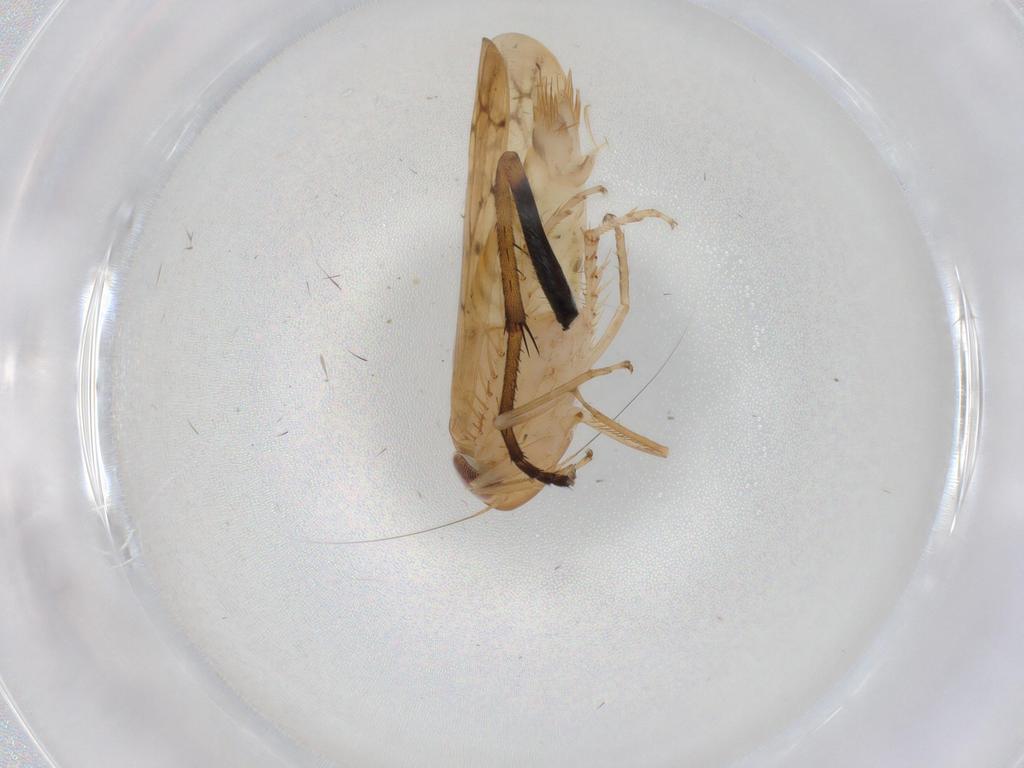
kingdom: Animalia
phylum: Arthropoda
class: Insecta
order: Hemiptera
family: Cicadellidae
